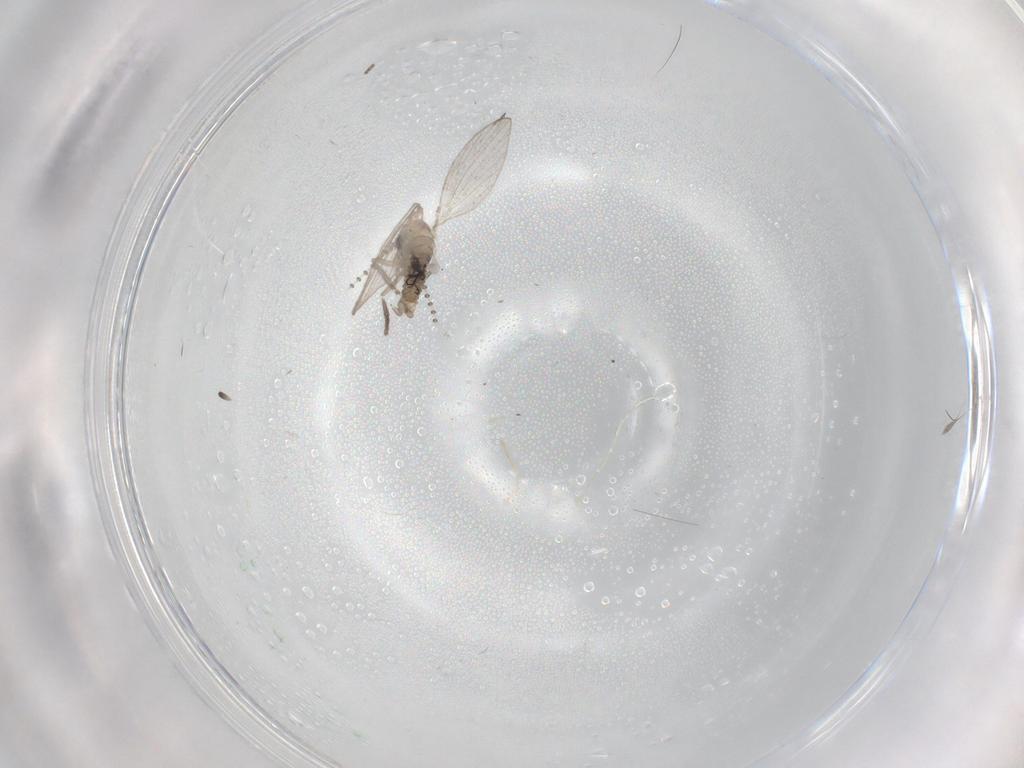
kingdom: Animalia
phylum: Arthropoda
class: Insecta
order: Diptera
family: Psychodidae
